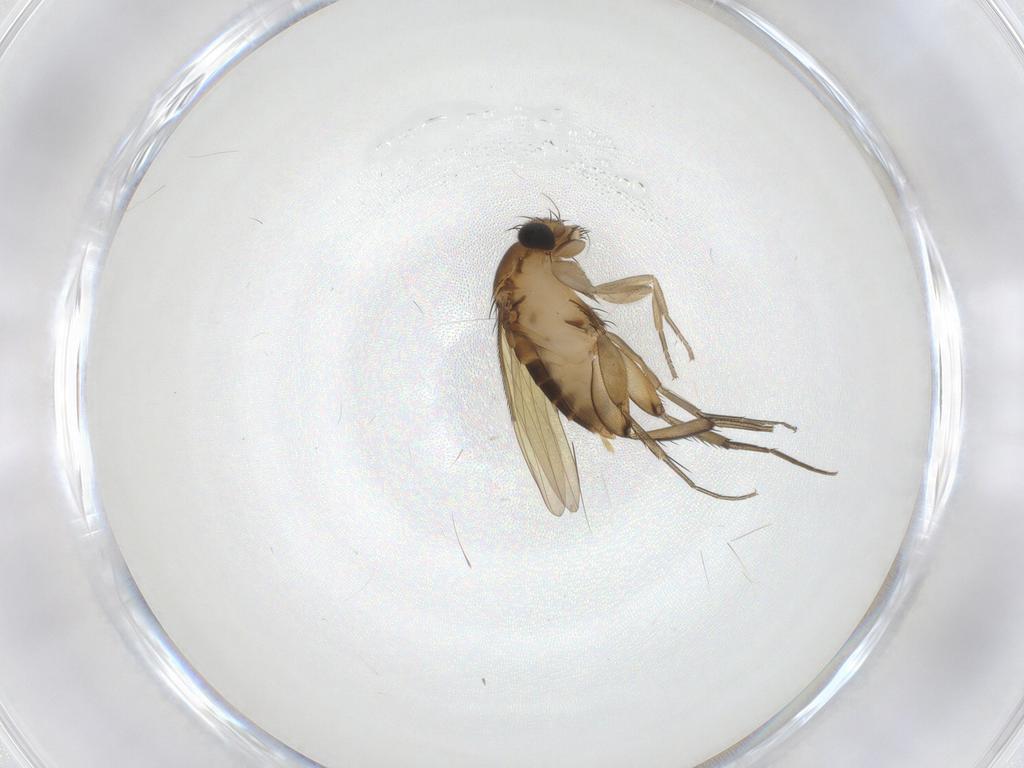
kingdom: Animalia
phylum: Arthropoda
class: Insecta
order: Diptera
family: Phoridae
